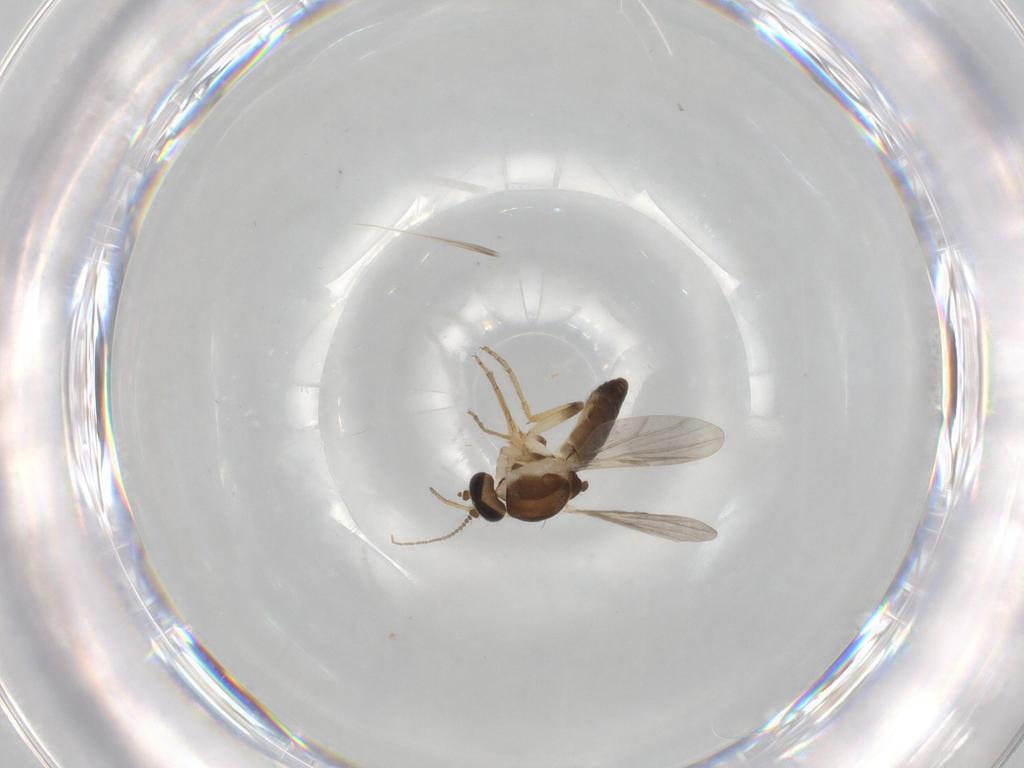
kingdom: Animalia
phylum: Arthropoda
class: Insecta
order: Diptera
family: Ceratopogonidae
